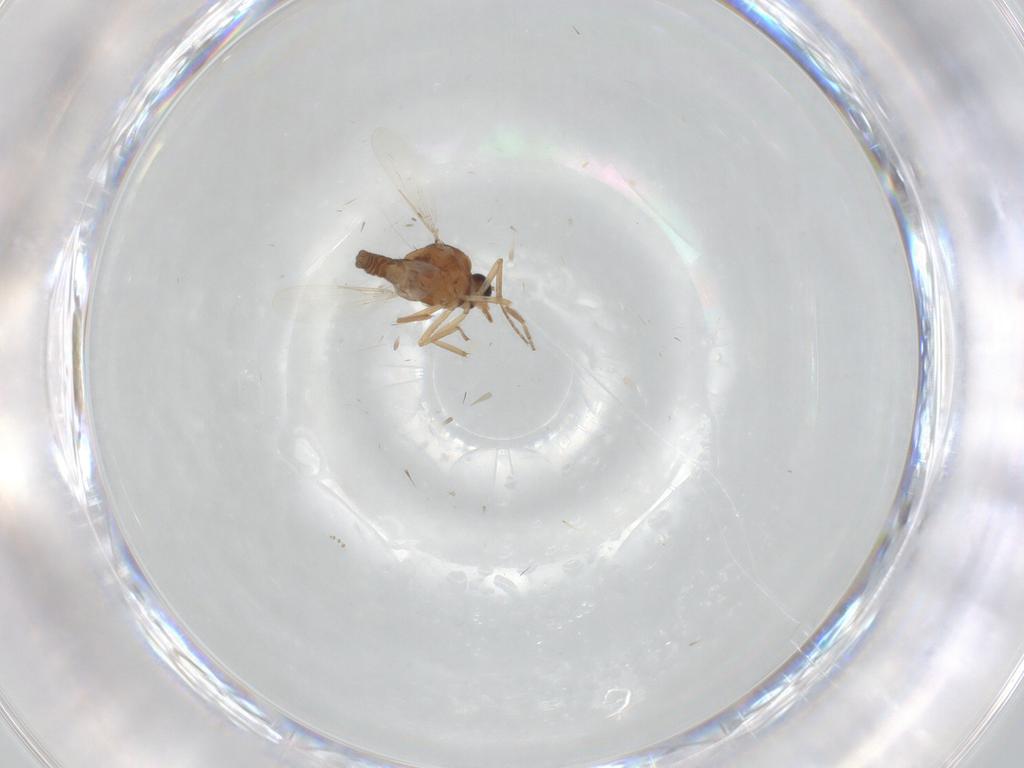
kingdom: Animalia
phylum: Arthropoda
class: Insecta
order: Diptera
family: Ceratopogonidae
